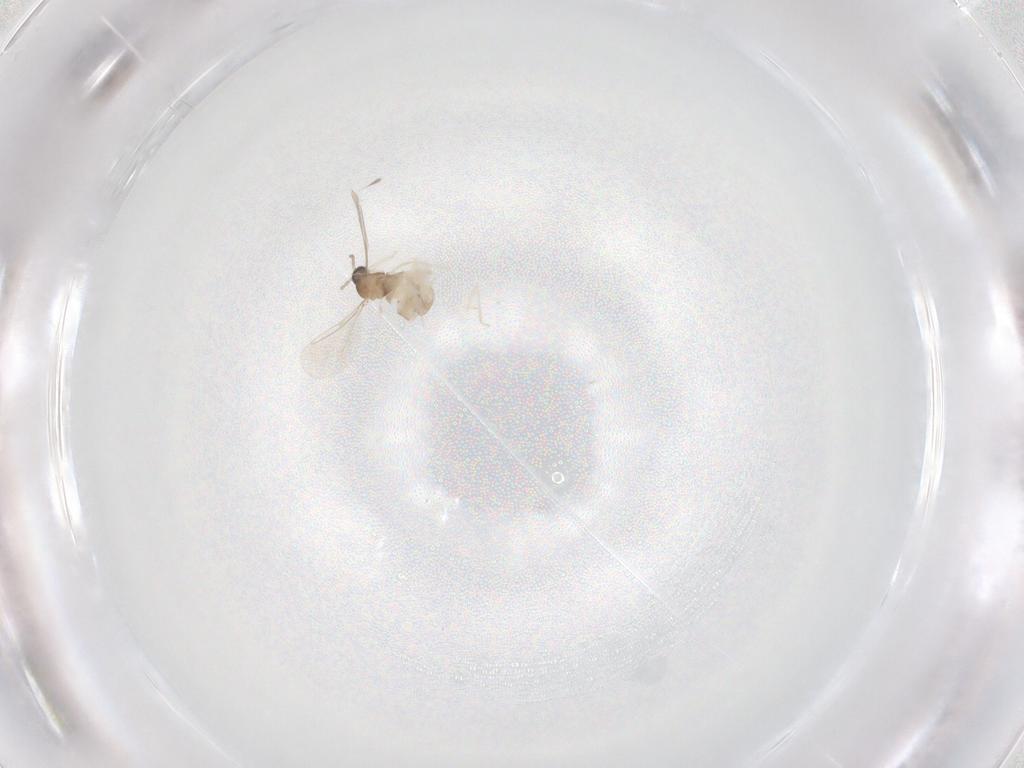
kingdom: Animalia
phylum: Arthropoda
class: Insecta
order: Diptera
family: Cecidomyiidae
